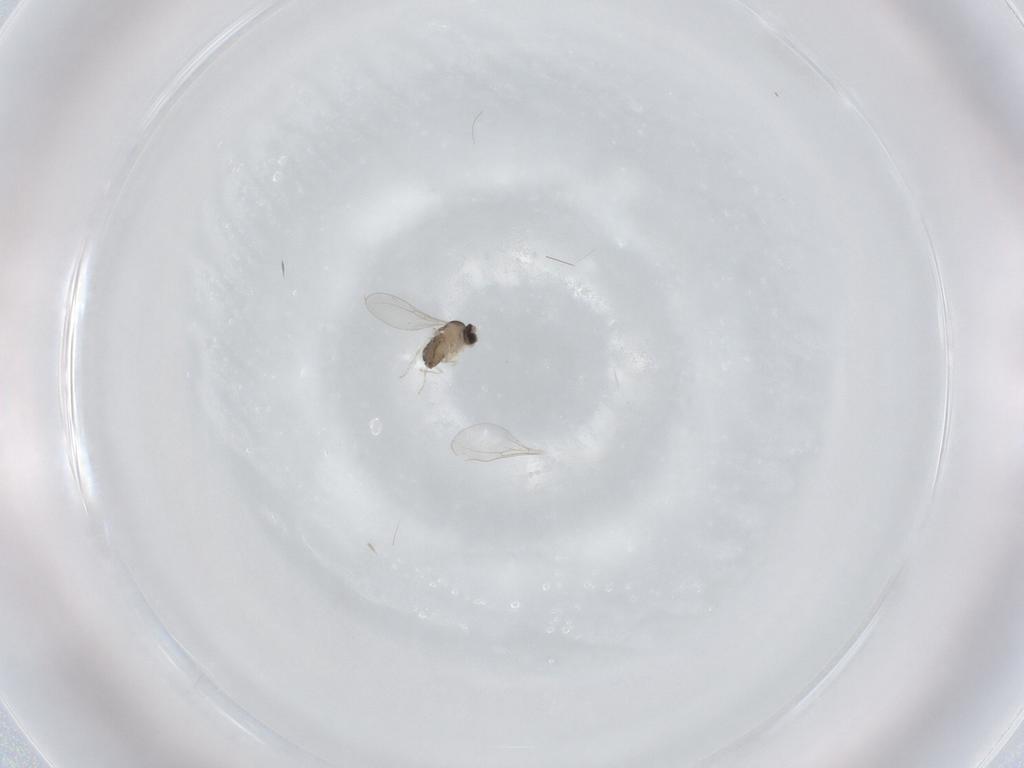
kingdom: Animalia
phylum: Arthropoda
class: Insecta
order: Diptera
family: Cecidomyiidae
